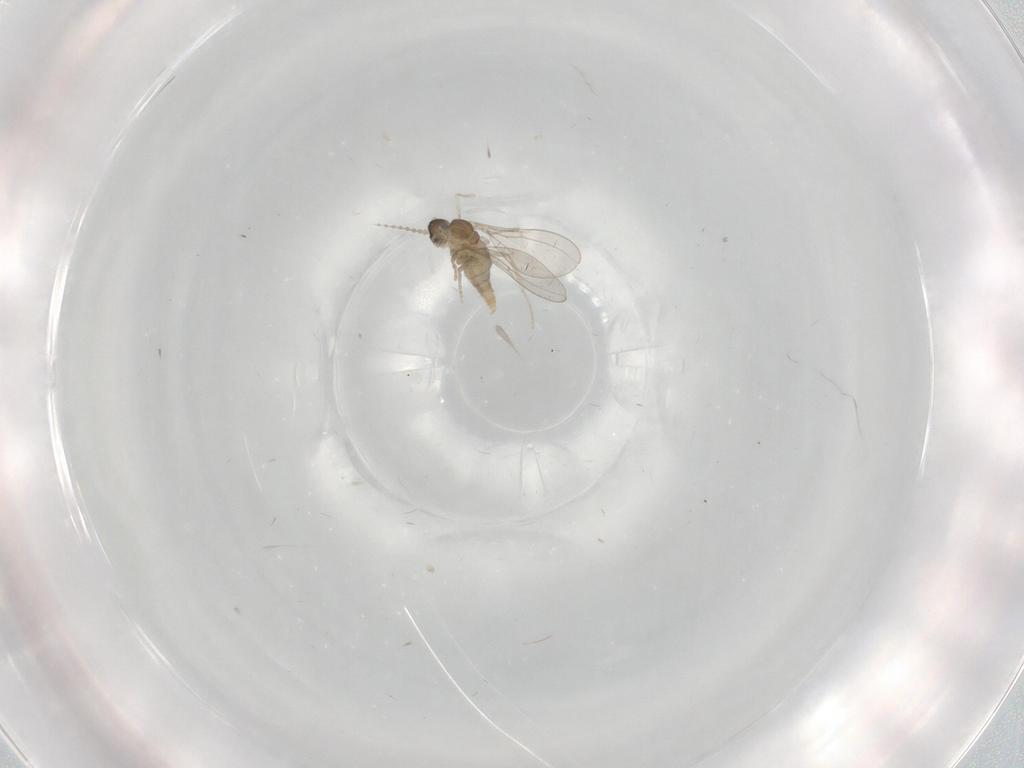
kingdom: Animalia
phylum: Arthropoda
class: Insecta
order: Diptera
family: Cecidomyiidae
